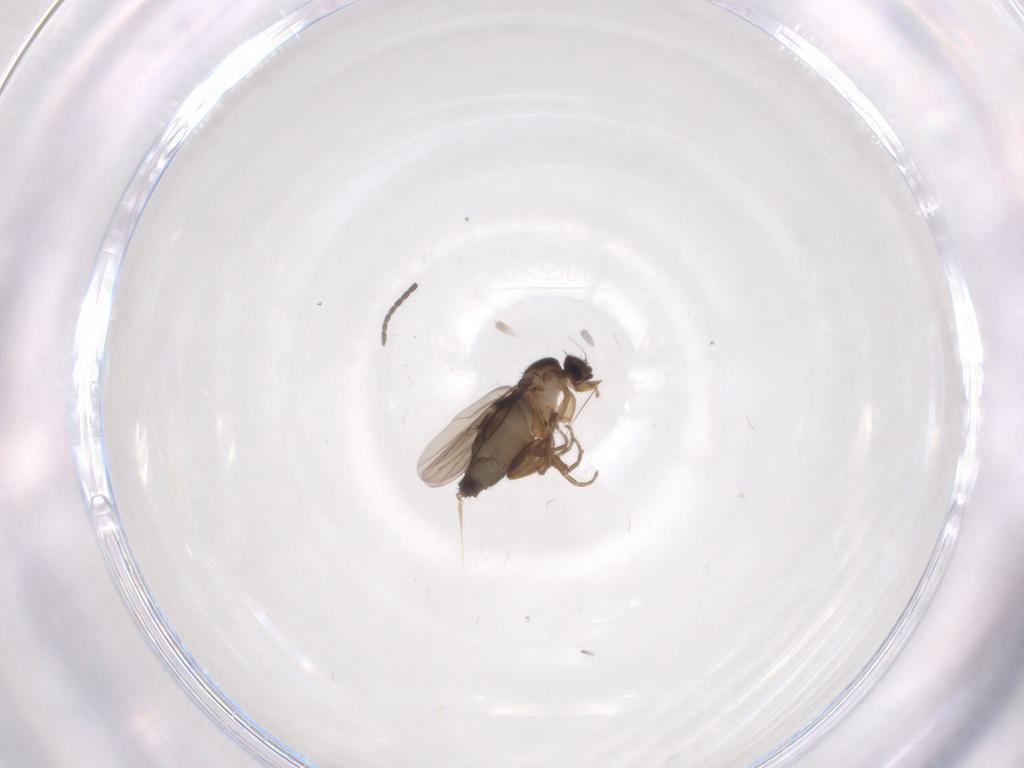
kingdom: Animalia
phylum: Arthropoda
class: Insecta
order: Diptera
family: Phoridae
